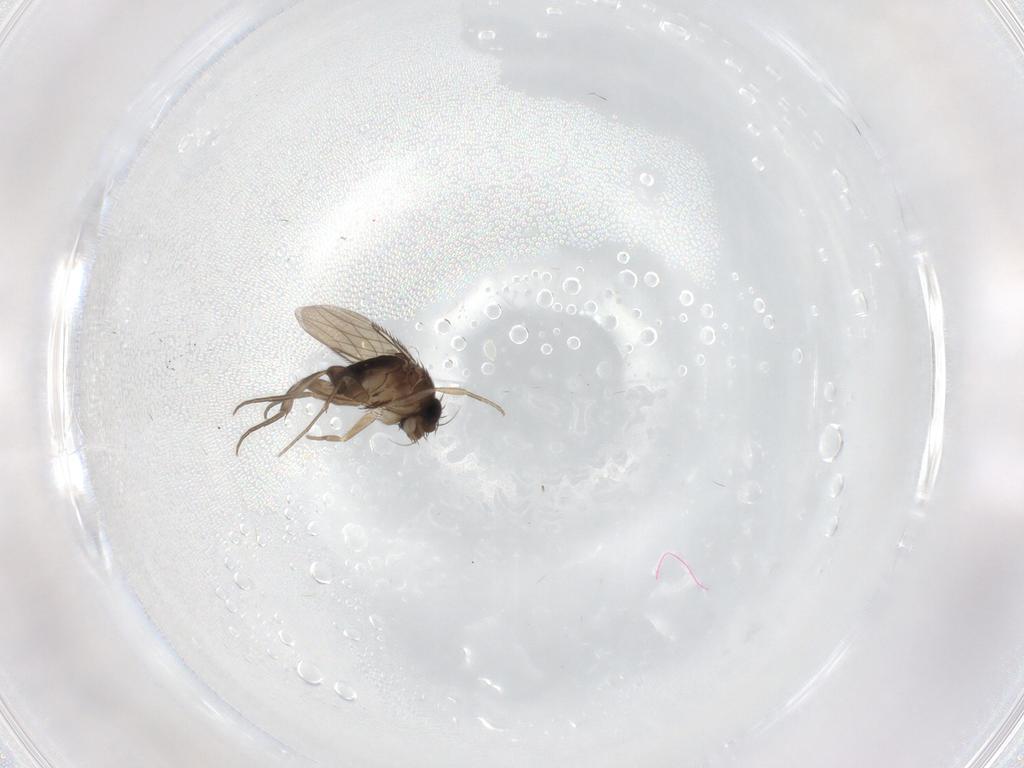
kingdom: Animalia
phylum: Arthropoda
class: Insecta
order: Diptera
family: Phoridae
